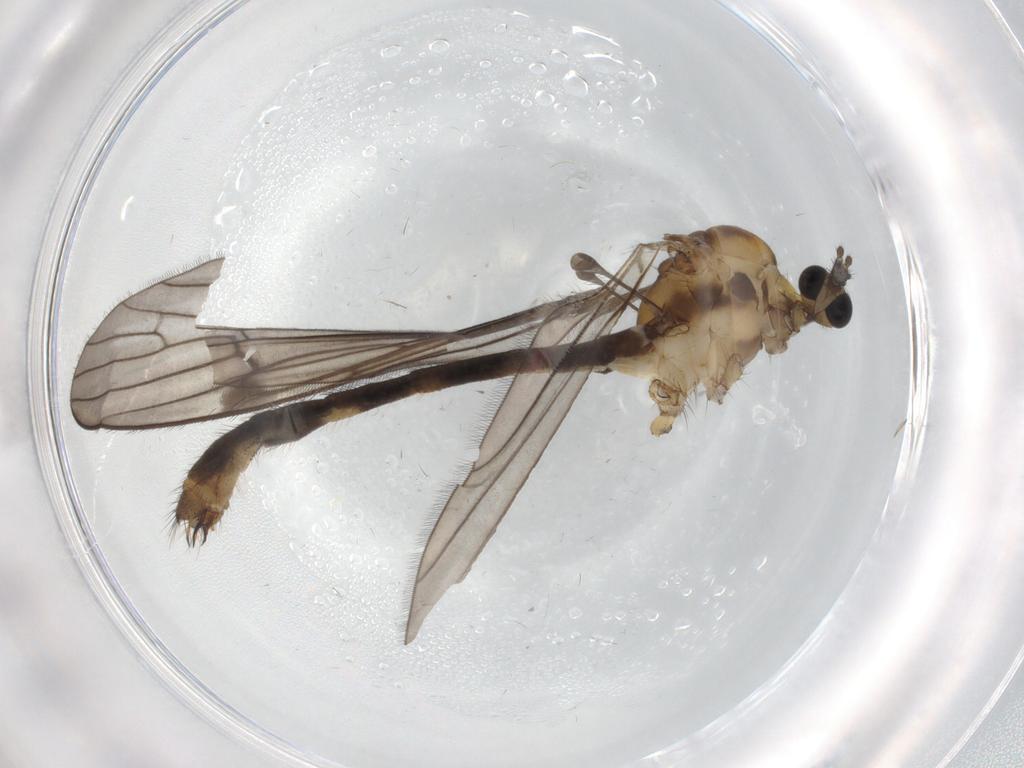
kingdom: Animalia
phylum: Arthropoda
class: Insecta
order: Diptera
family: Limoniidae
